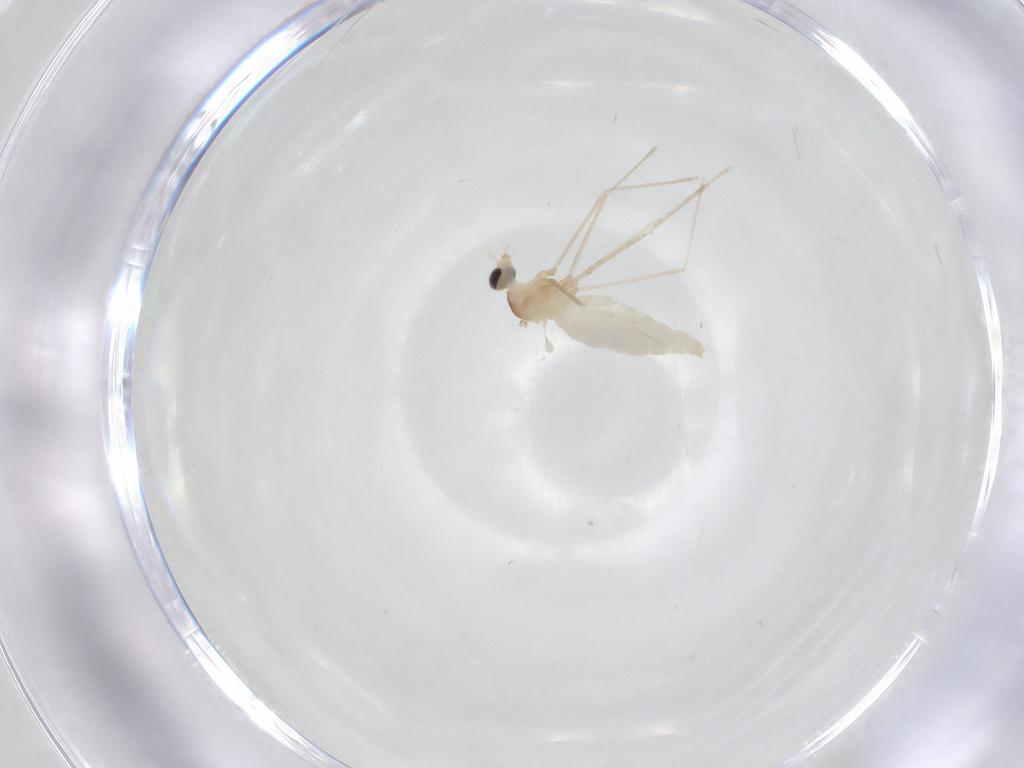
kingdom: Animalia
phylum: Arthropoda
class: Insecta
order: Diptera
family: Cecidomyiidae
